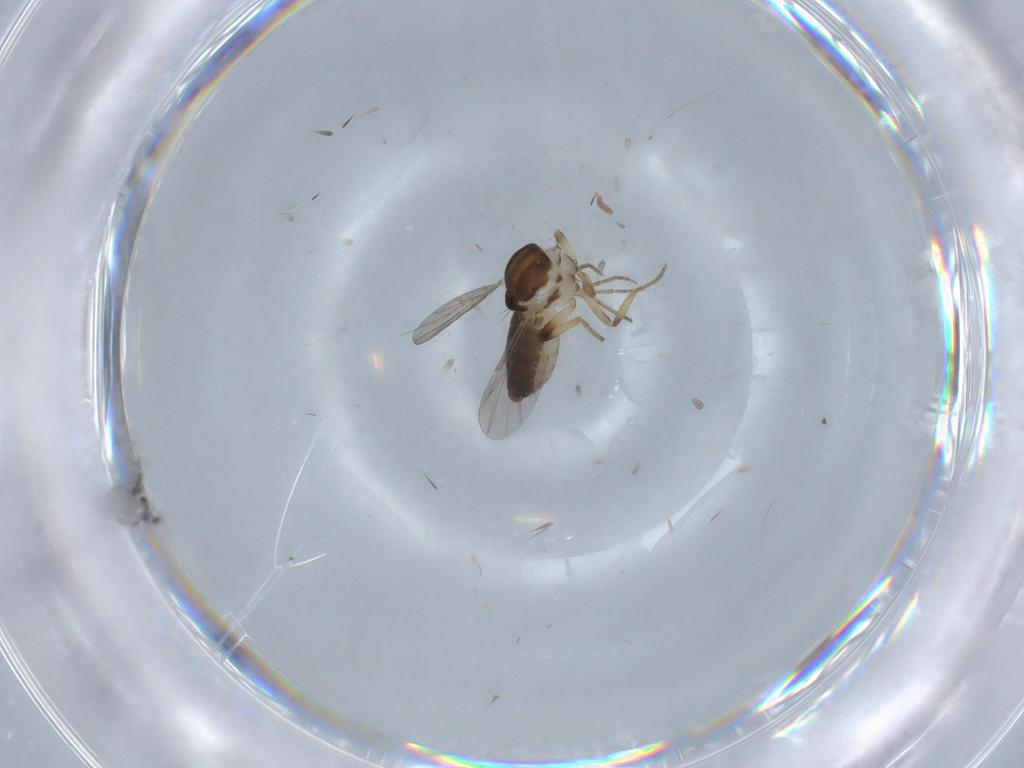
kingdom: Animalia
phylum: Arthropoda
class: Insecta
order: Diptera
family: Ceratopogonidae
